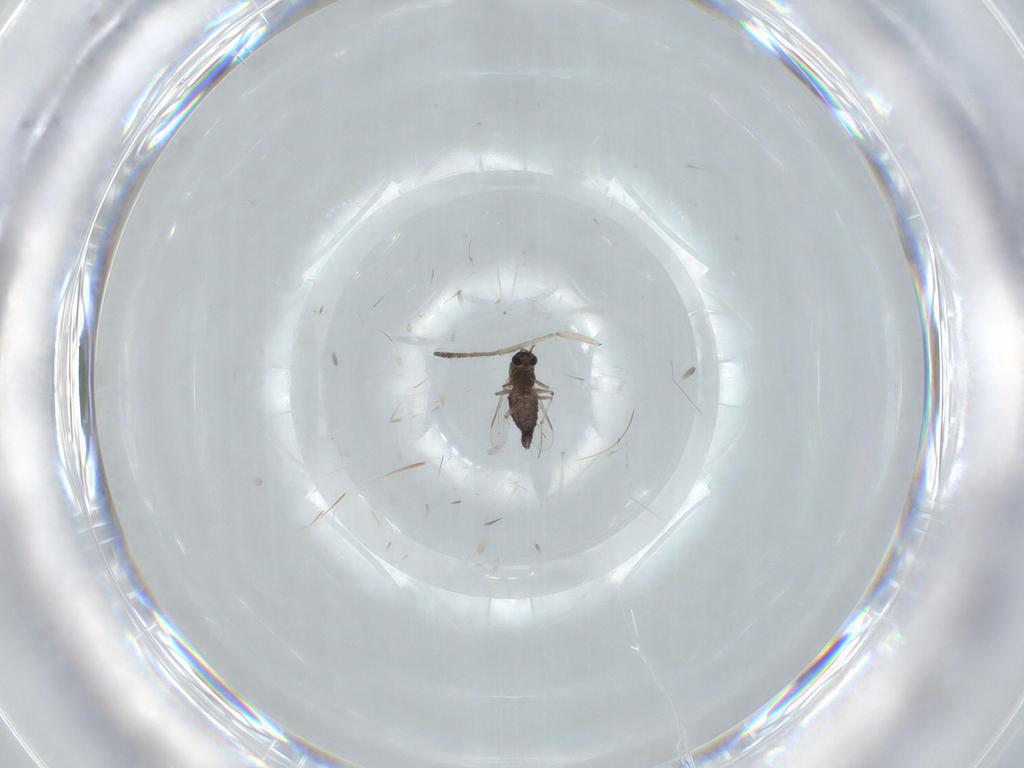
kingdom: Animalia
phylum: Arthropoda
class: Insecta
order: Diptera
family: Chironomidae
